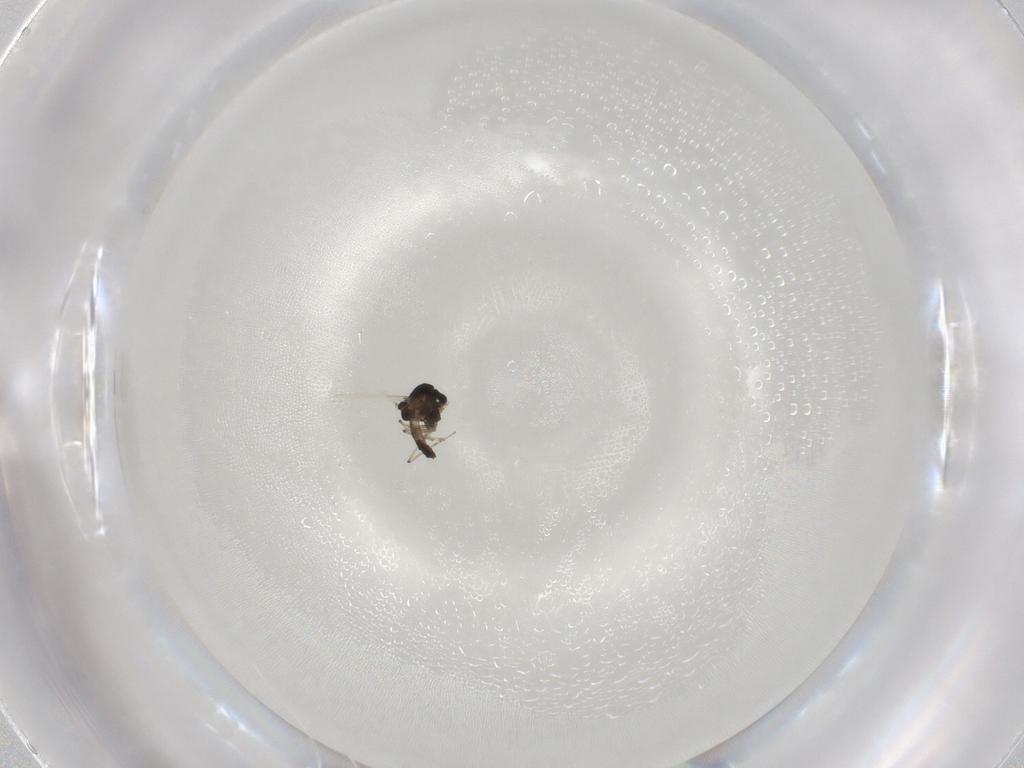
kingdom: Animalia
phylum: Arthropoda
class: Insecta
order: Diptera
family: Chironomidae
